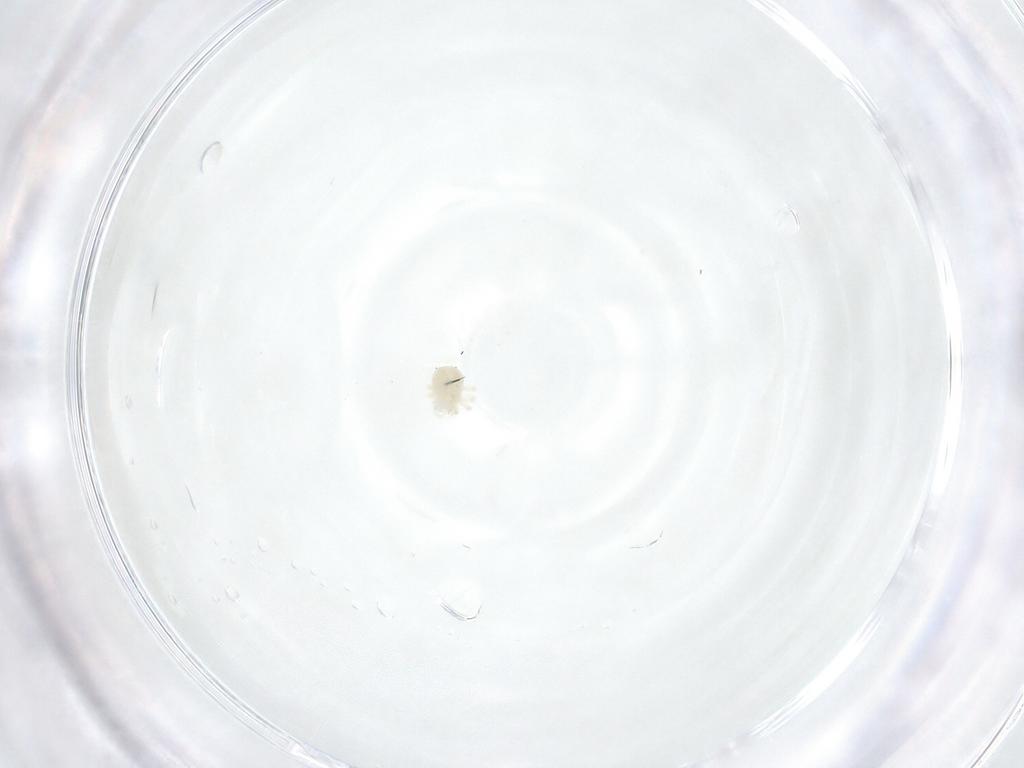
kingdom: Animalia
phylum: Arthropoda
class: Arachnida
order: Trombidiformes
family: Anystidae
